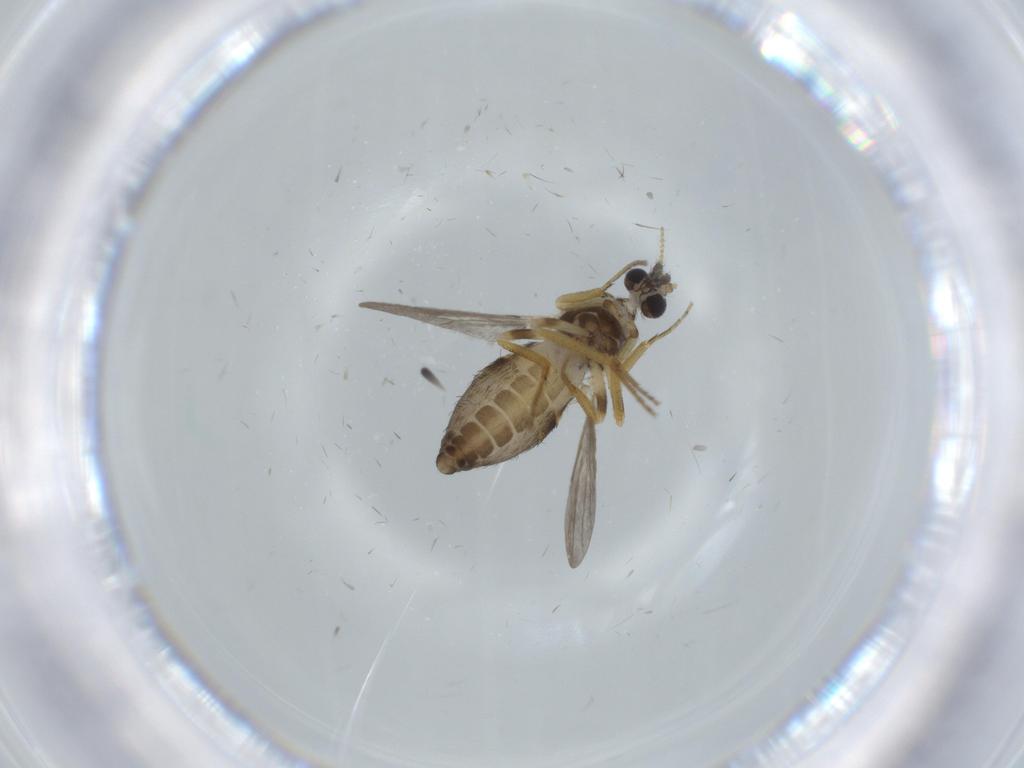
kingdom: Animalia
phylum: Arthropoda
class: Insecta
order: Diptera
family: Ceratopogonidae
